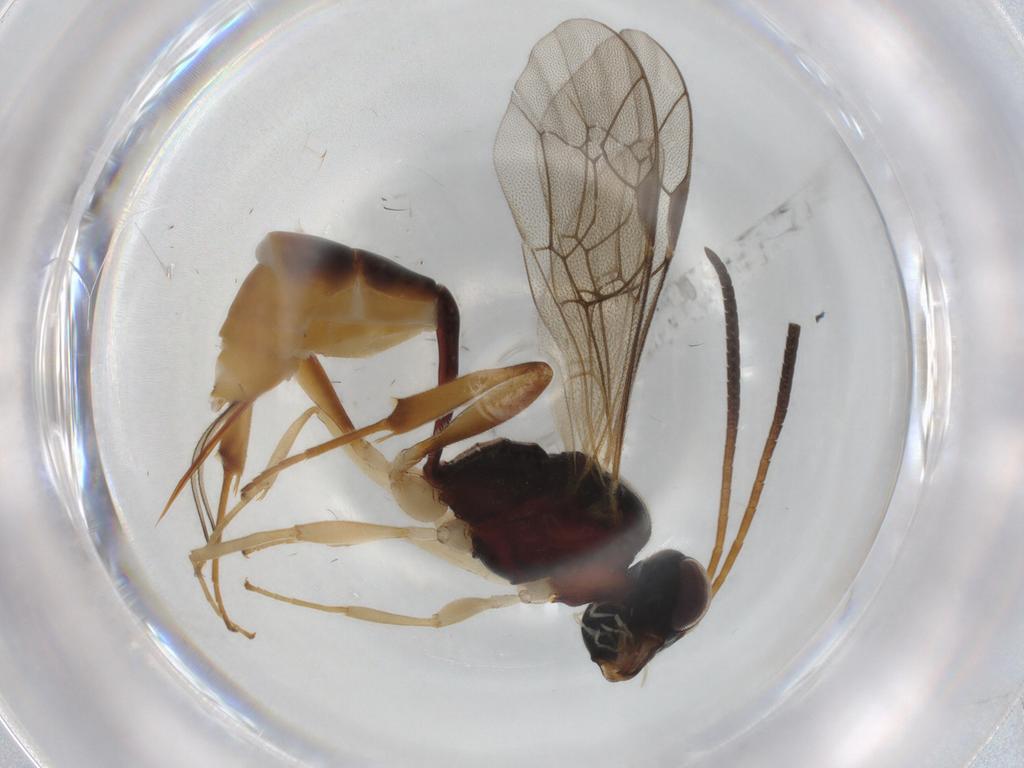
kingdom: Animalia
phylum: Arthropoda
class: Insecta
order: Hymenoptera
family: Ichneumonidae
